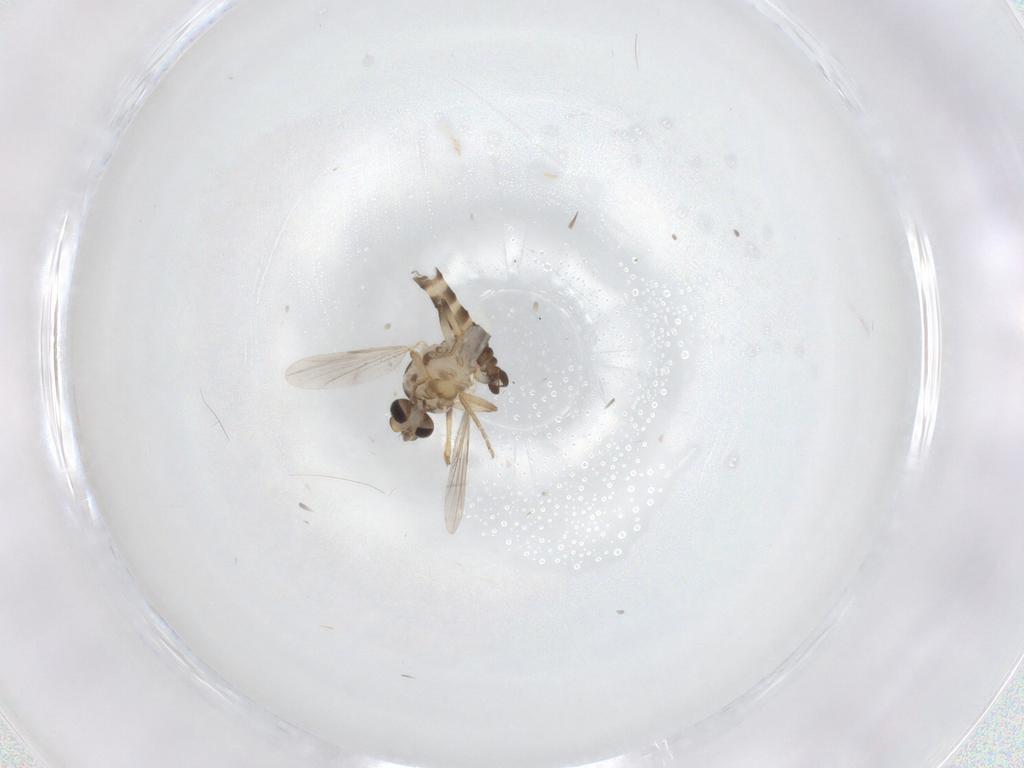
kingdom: Animalia
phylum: Arthropoda
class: Insecta
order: Diptera
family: Ceratopogonidae
